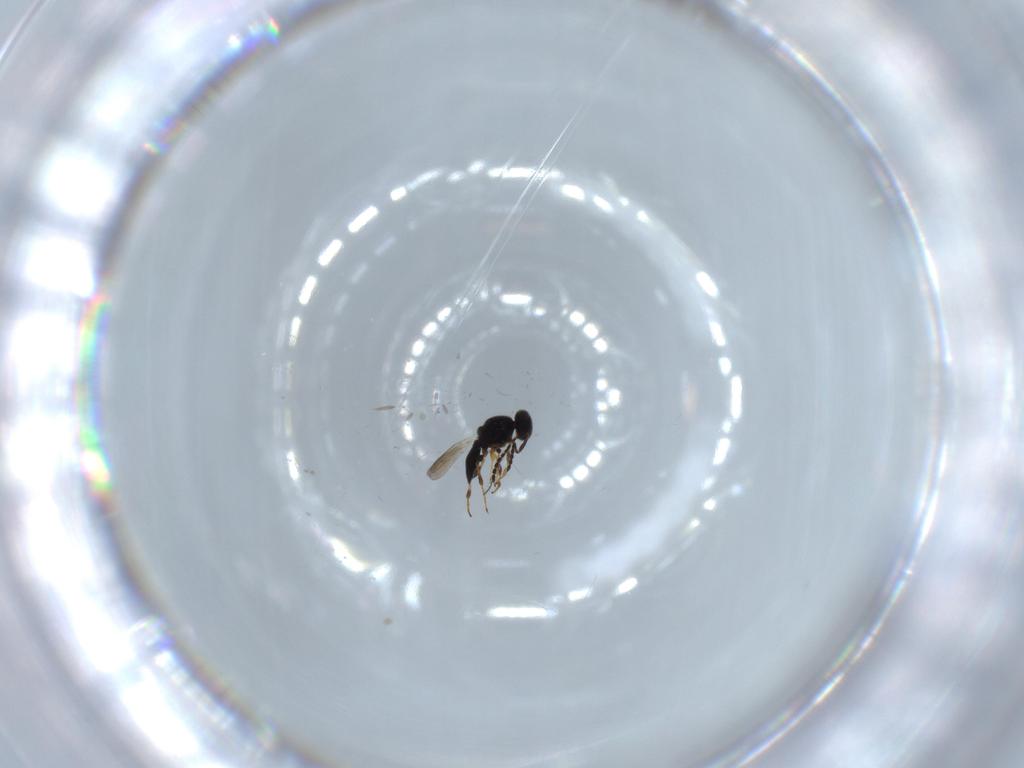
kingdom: Animalia
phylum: Arthropoda
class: Insecta
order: Hymenoptera
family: Platygastridae
